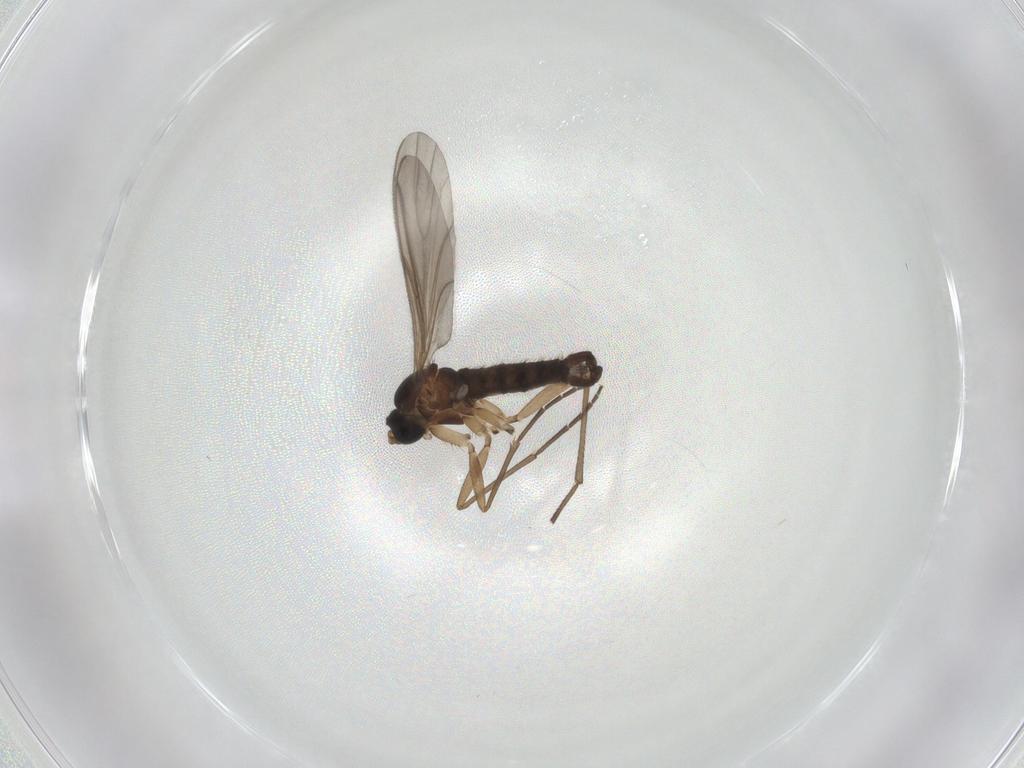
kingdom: Animalia
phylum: Arthropoda
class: Insecta
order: Diptera
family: Sciaridae
